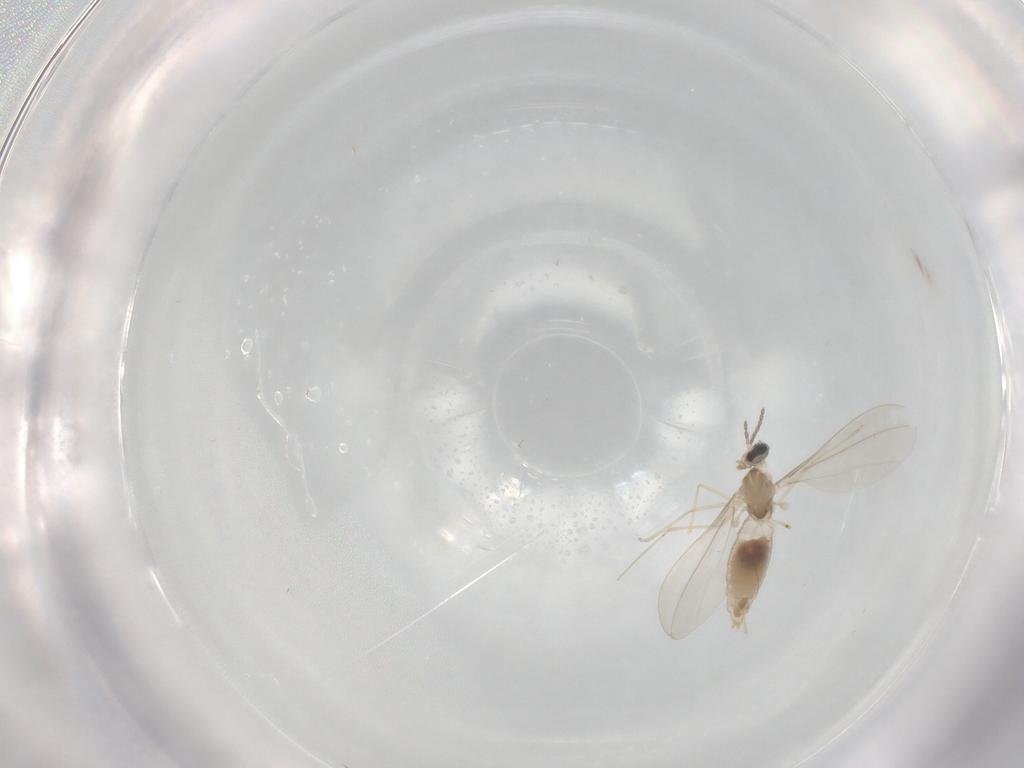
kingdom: Animalia
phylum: Arthropoda
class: Insecta
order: Diptera
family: Cecidomyiidae
